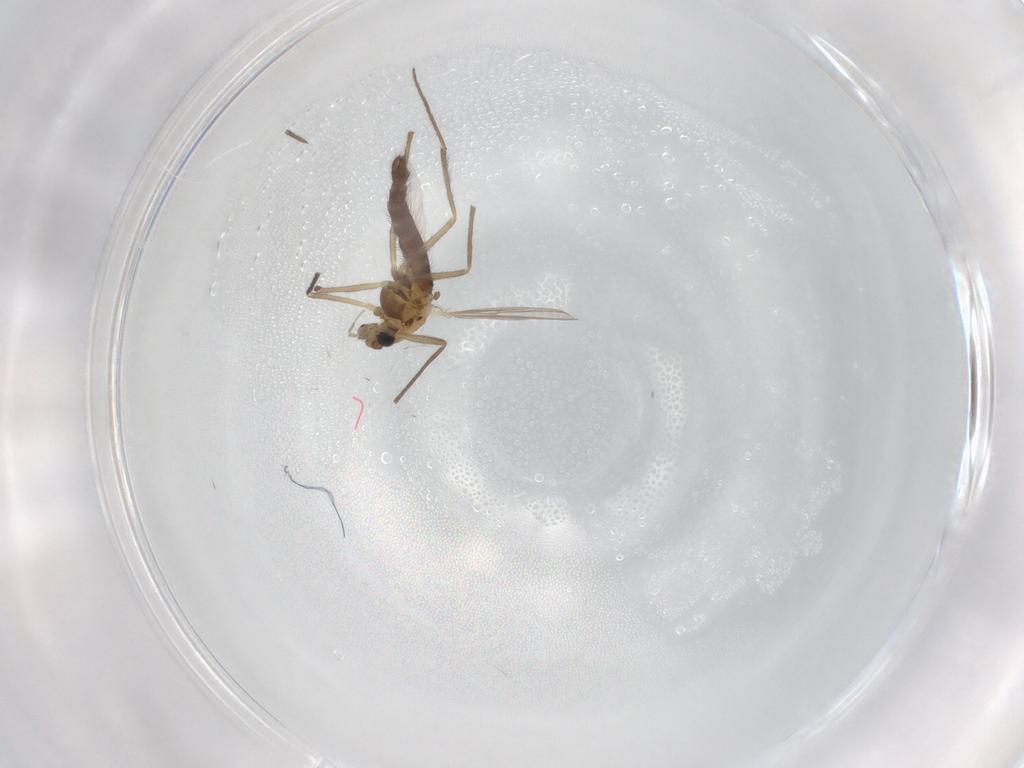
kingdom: Animalia
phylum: Arthropoda
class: Insecta
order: Diptera
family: Chironomidae
